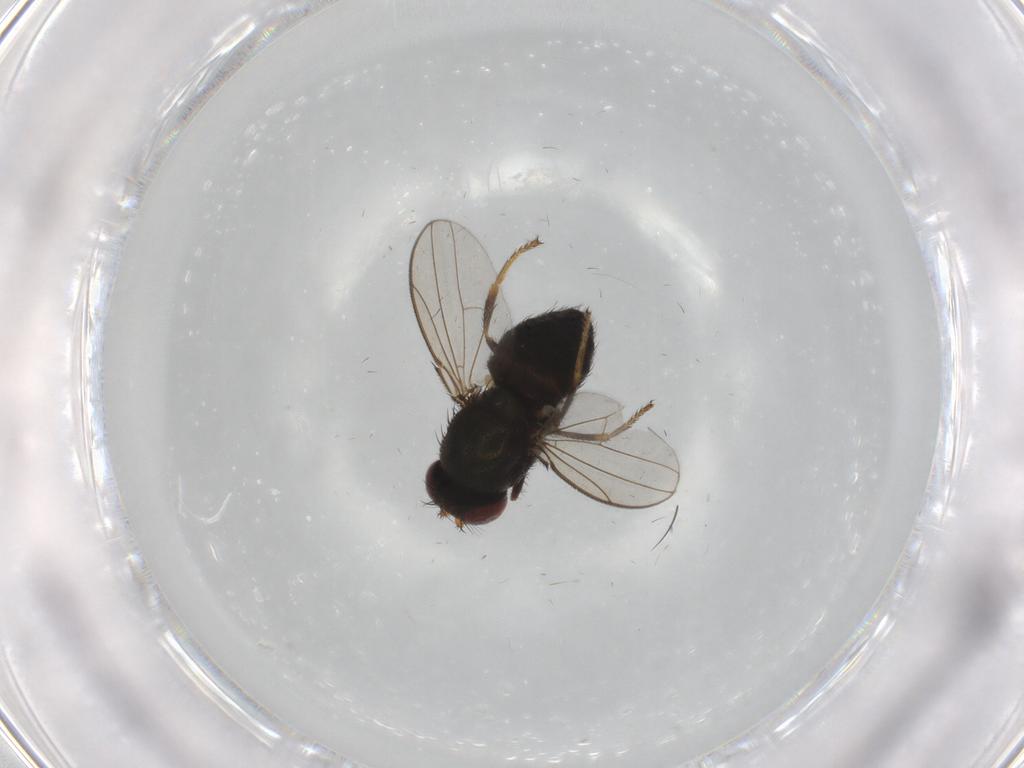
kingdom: Animalia
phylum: Arthropoda
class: Insecta
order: Diptera
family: Ephydridae
